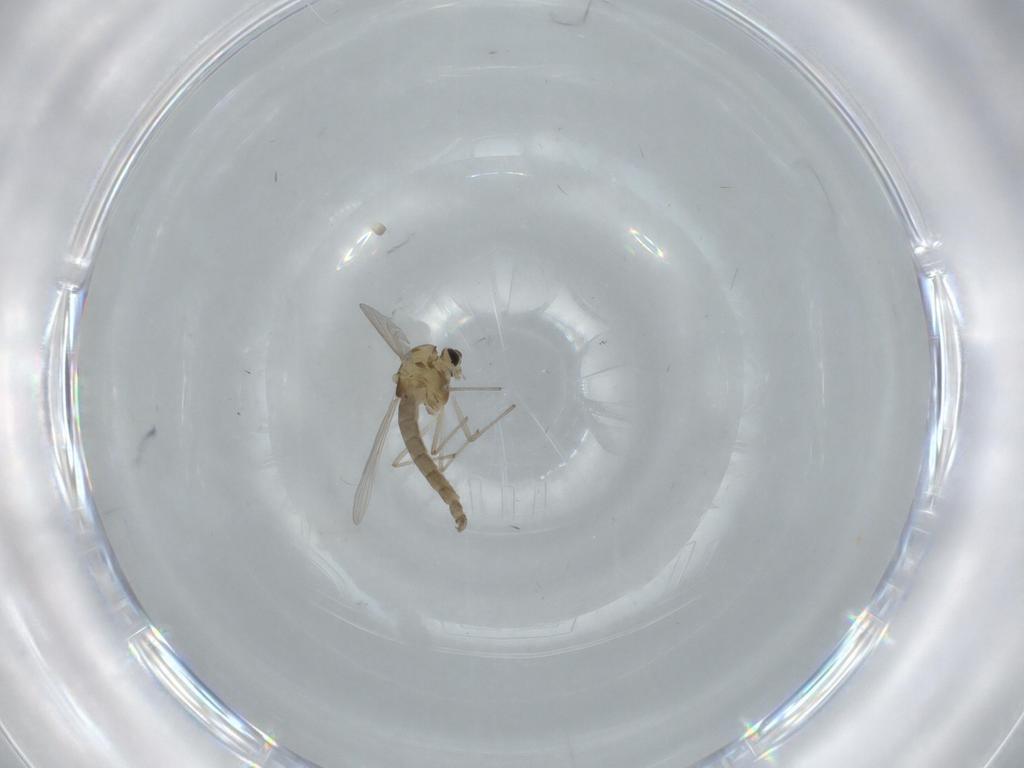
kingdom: Animalia
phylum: Arthropoda
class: Insecta
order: Diptera
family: Chironomidae
